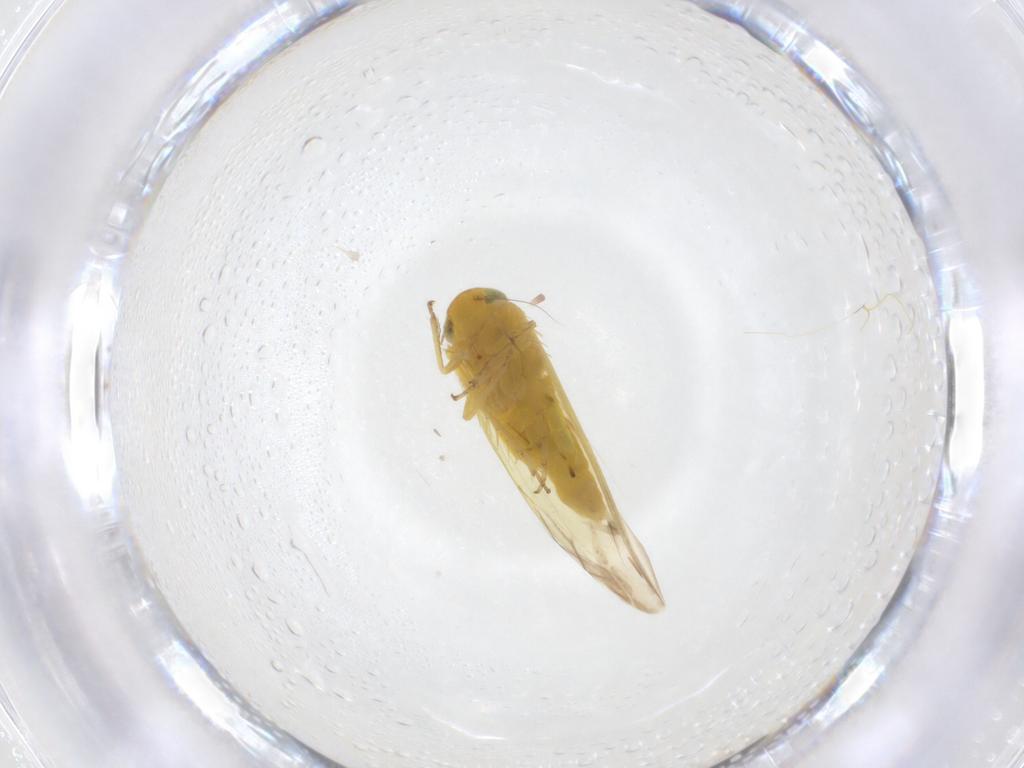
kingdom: Animalia
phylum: Arthropoda
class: Insecta
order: Hemiptera
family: Cicadellidae
